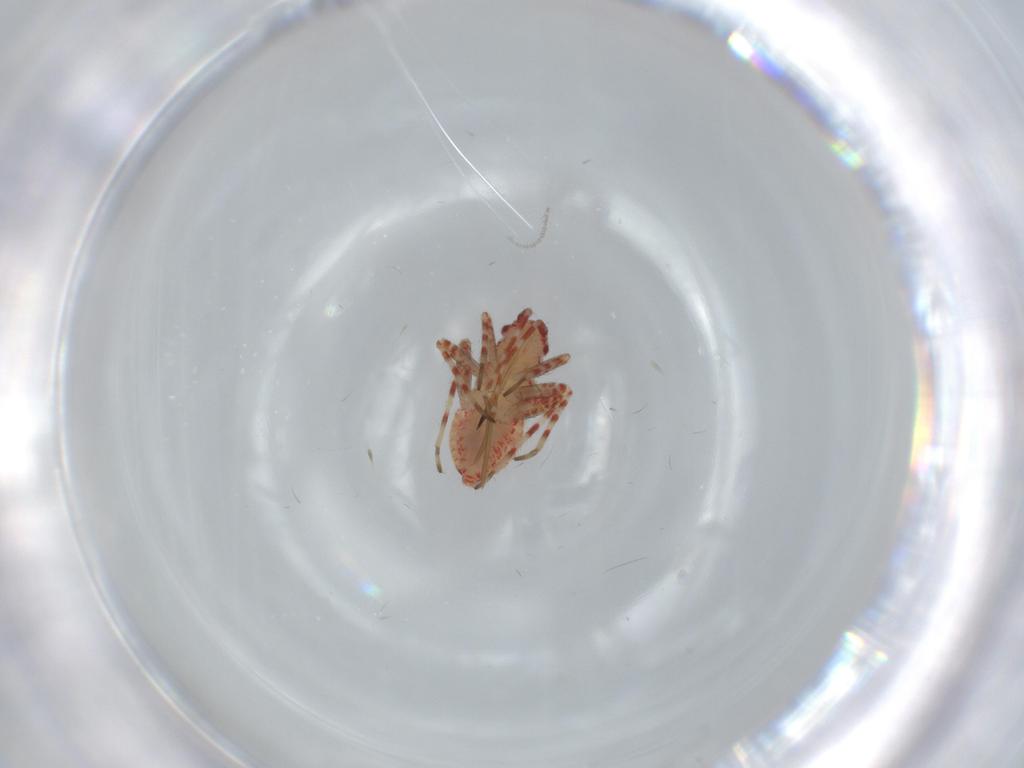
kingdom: Animalia
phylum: Arthropoda
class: Insecta
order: Hemiptera
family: Miridae
